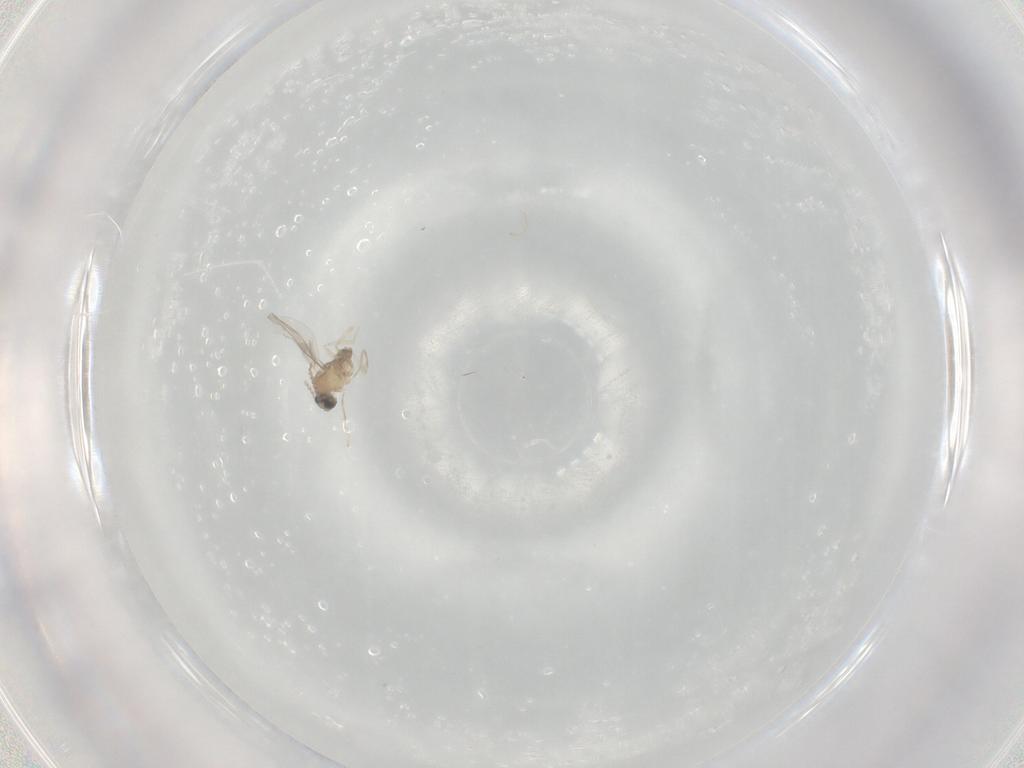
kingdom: Animalia
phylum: Arthropoda
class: Insecta
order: Diptera
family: Cecidomyiidae
